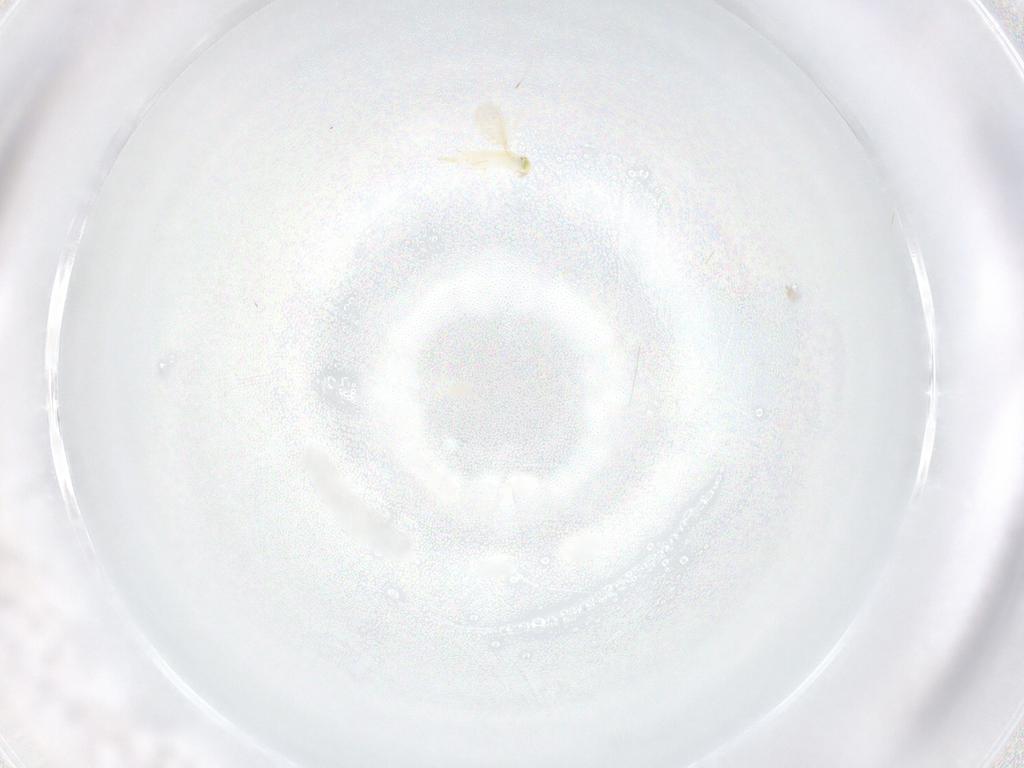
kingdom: Animalia
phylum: Arthropoda
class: Insecta
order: Hymenoptera
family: Aphelinidae
